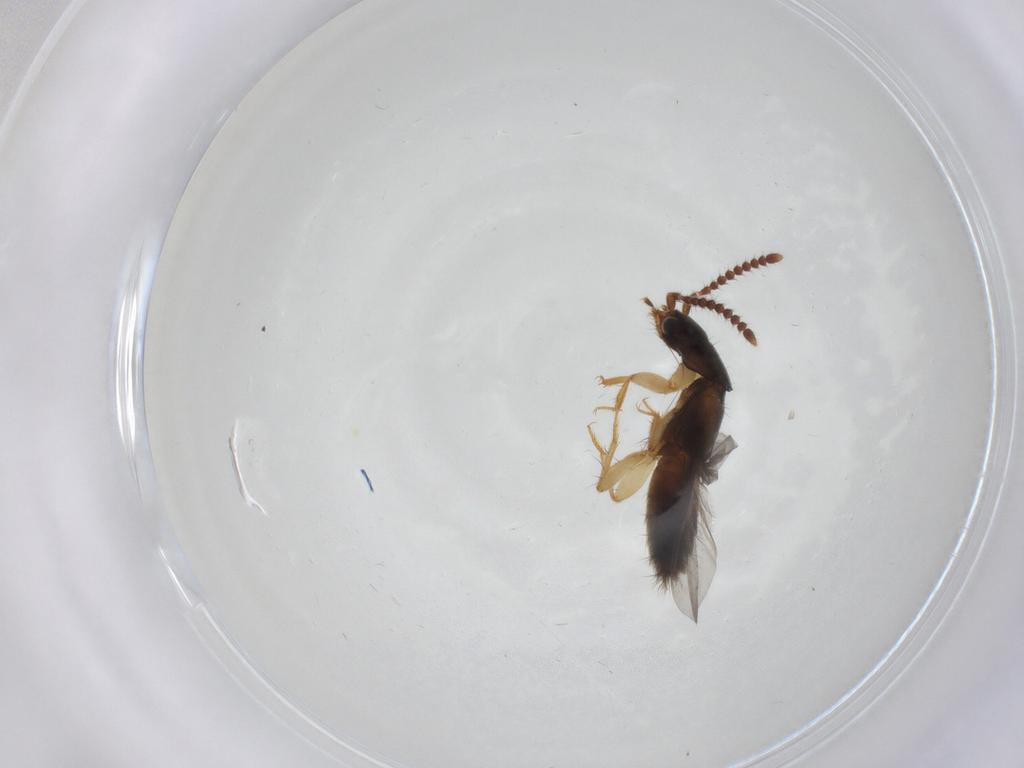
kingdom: Animalia
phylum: Arthropoda
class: Insecta
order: Coleoptera
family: Staphylinidae
